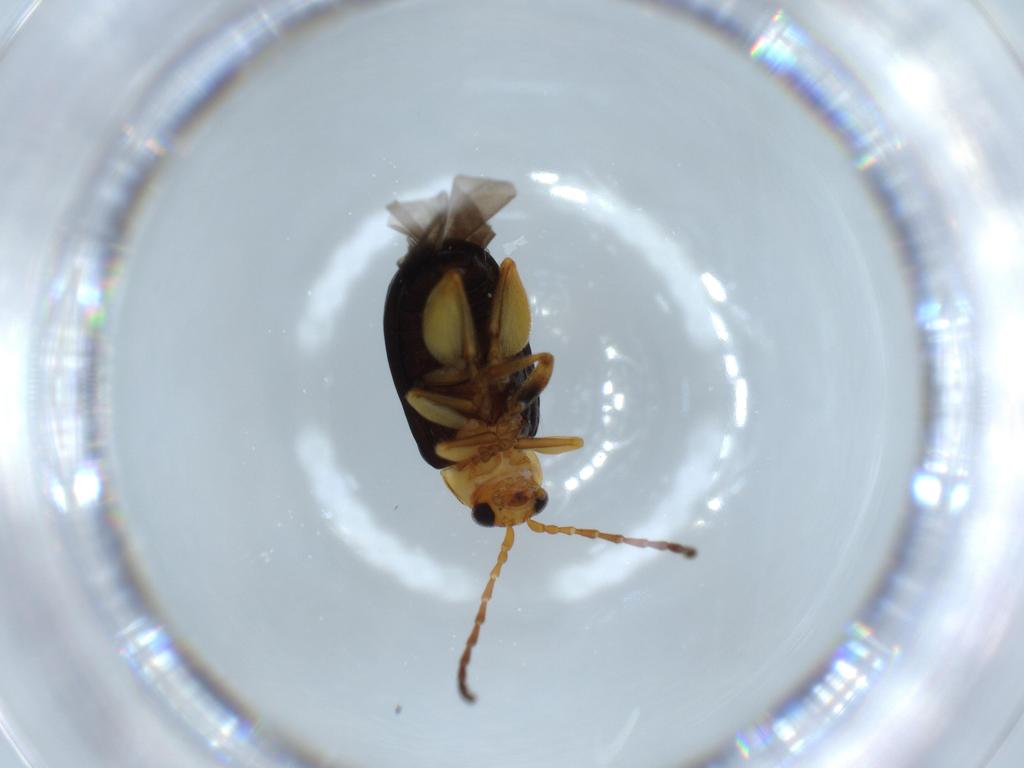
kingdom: Animalia
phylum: Arthropoda
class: Insecta
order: Coleoptera
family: Chrysomelidae
